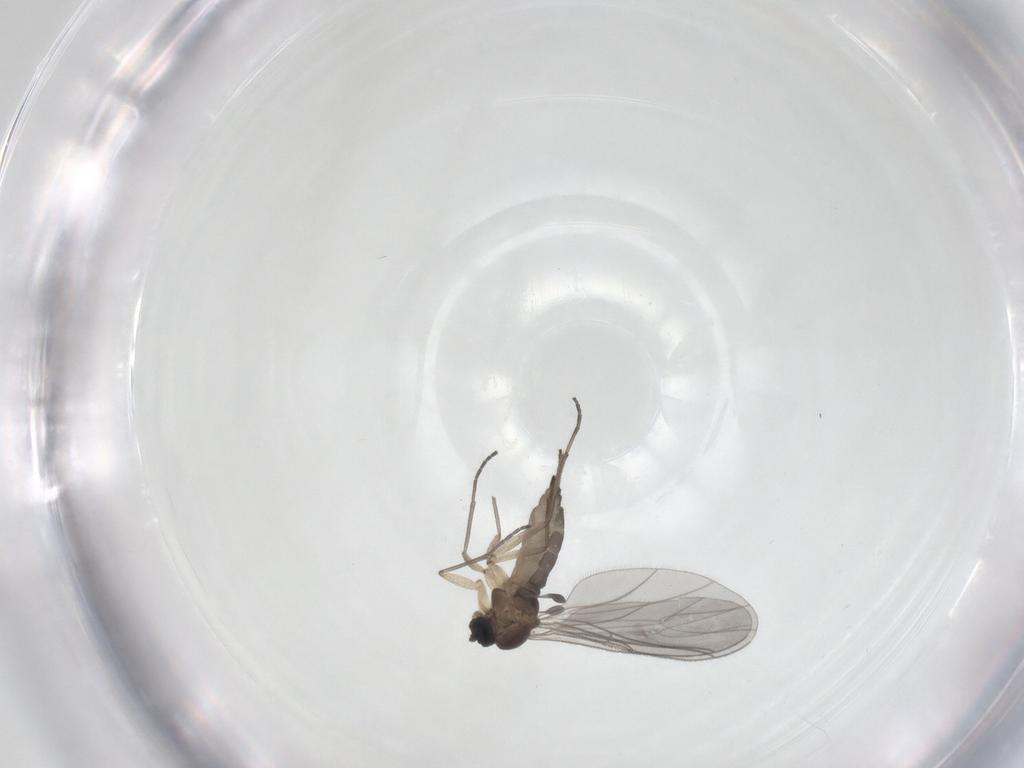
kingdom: Animalia
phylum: Arthropoda
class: Insecta
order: Diptera
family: Sciaridae
